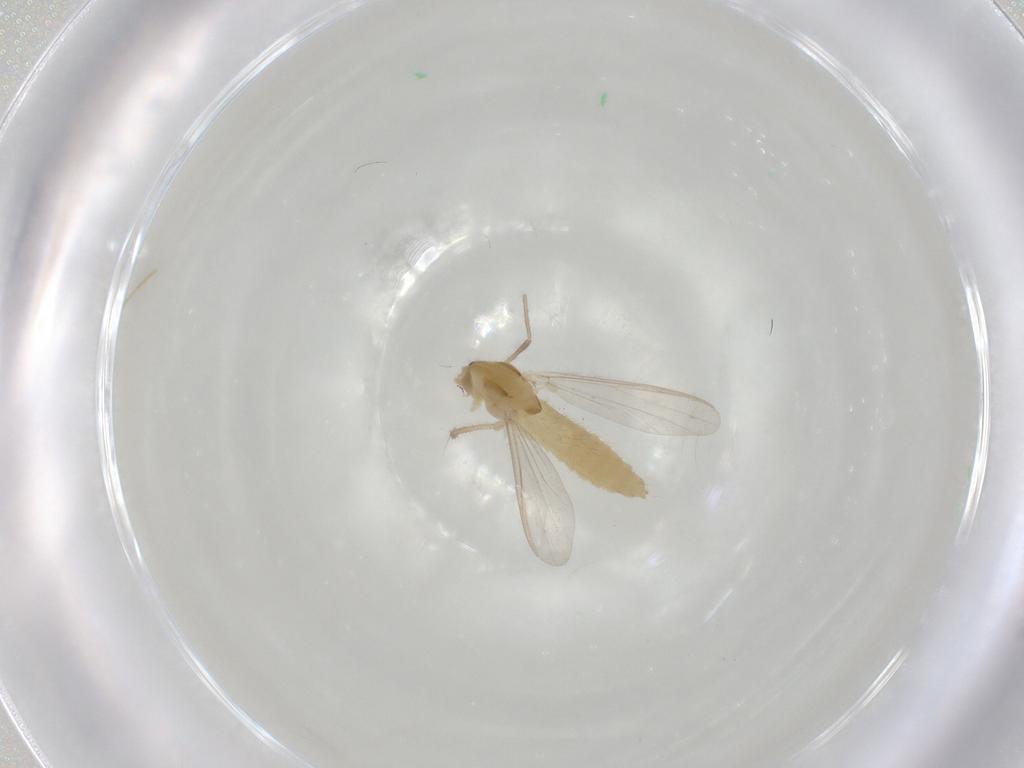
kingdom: Animalia
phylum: Arthropoda
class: Insecta
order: Diptera
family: Chironomidae
